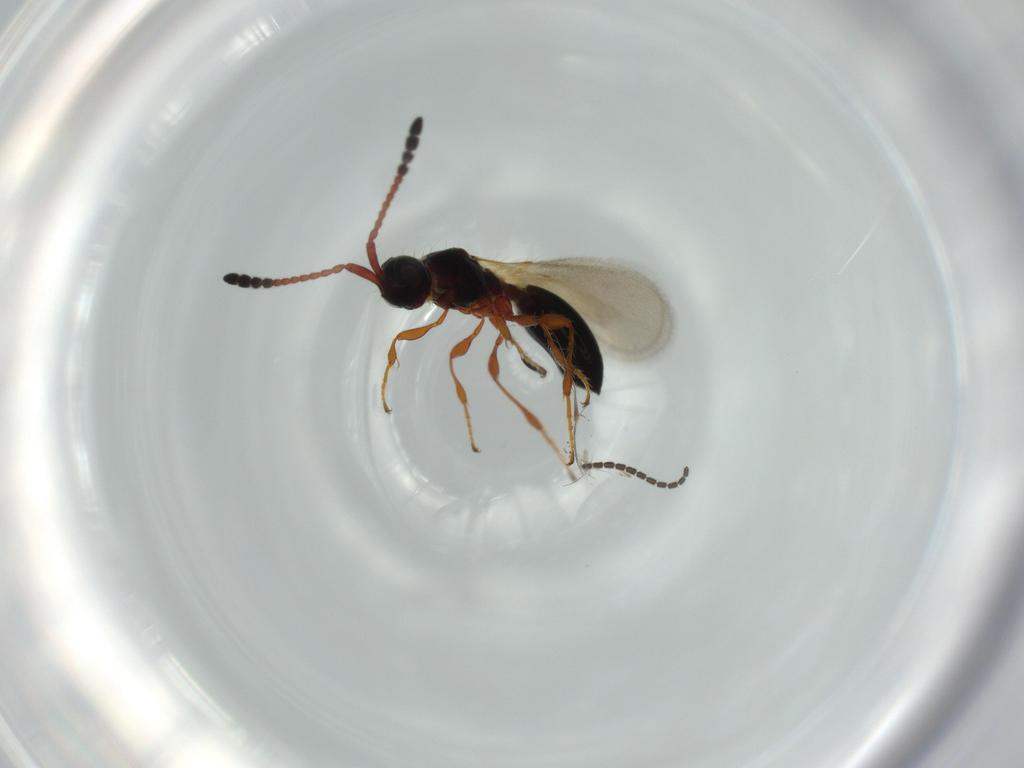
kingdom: Animalia
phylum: Arthropoda
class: Insecta
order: Hymenoptera
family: Diapriidae
